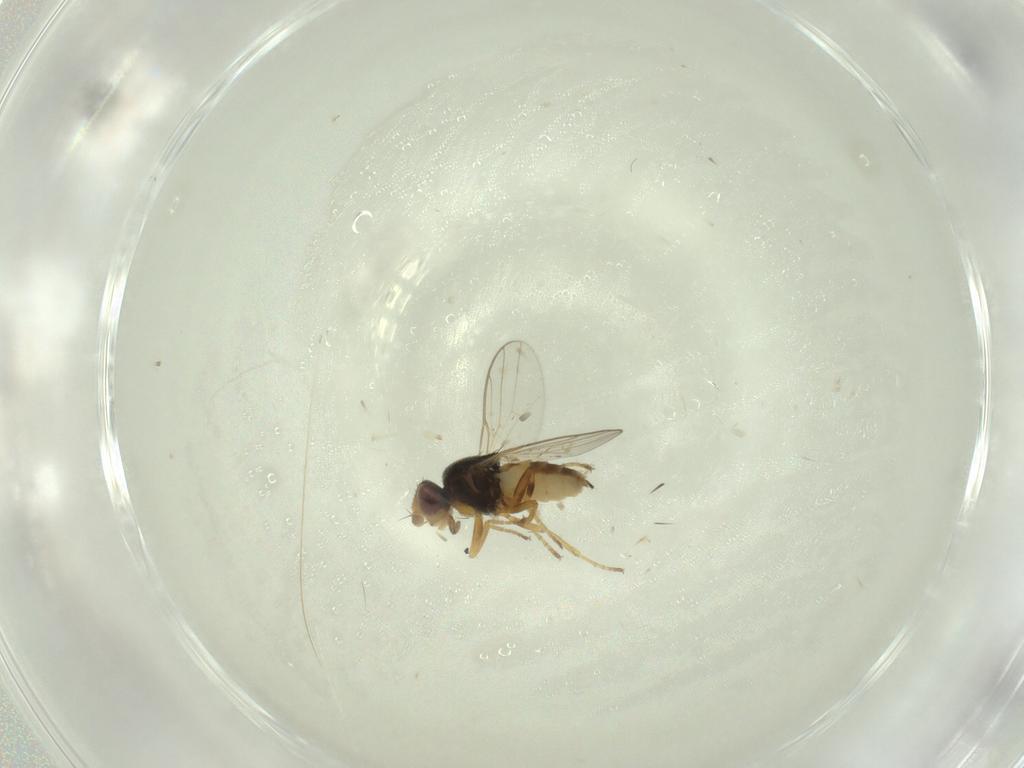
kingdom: Animalia
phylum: Arthropoda
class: Insecta
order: Diptera
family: Chloropidae
